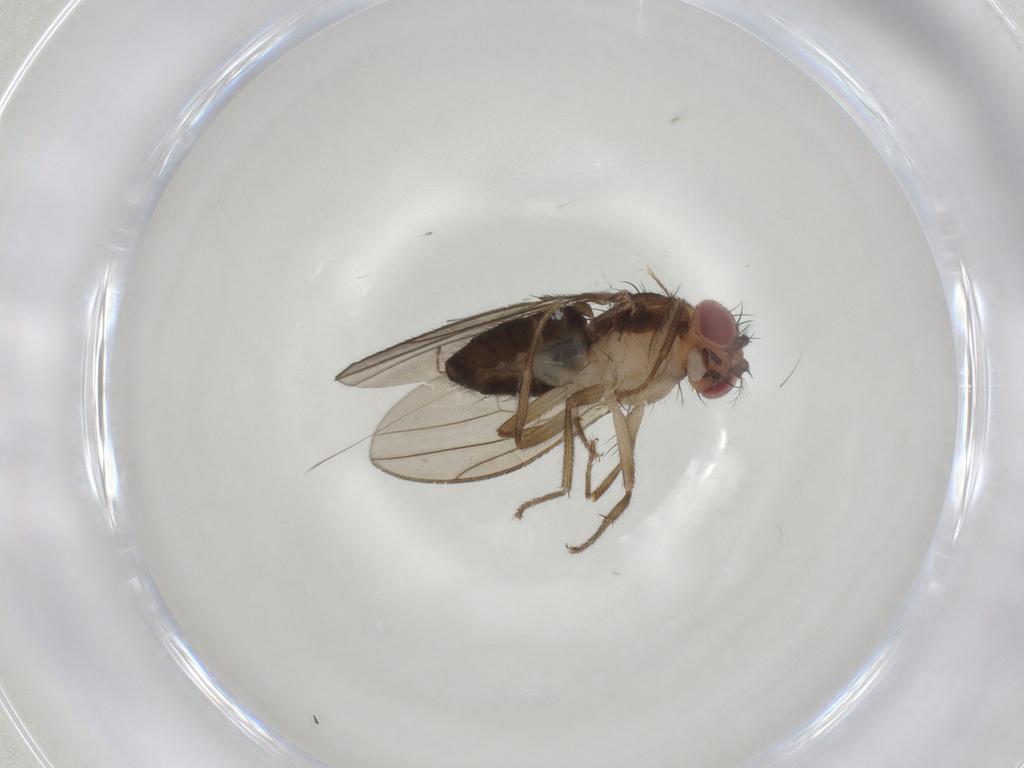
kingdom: Animalia
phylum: Arthropoda
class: Insecta
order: Diptera
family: Drosophilidae
